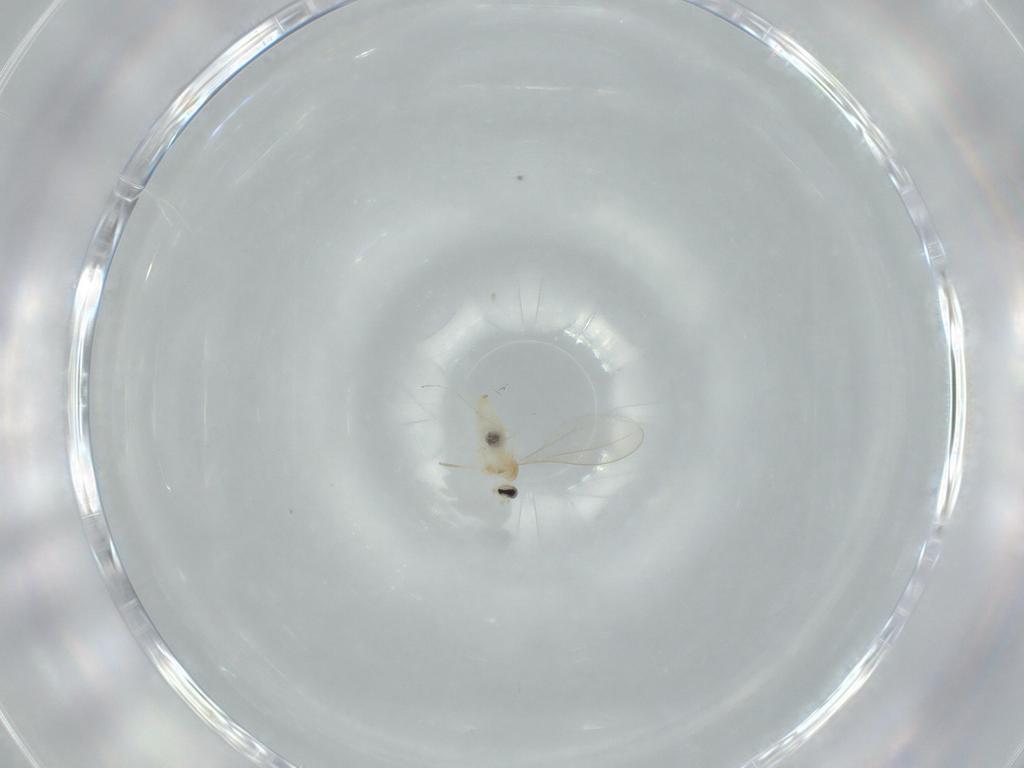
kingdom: Animalia
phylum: Arthropoda
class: Insecta
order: Diptera
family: Cecidomyiidae
